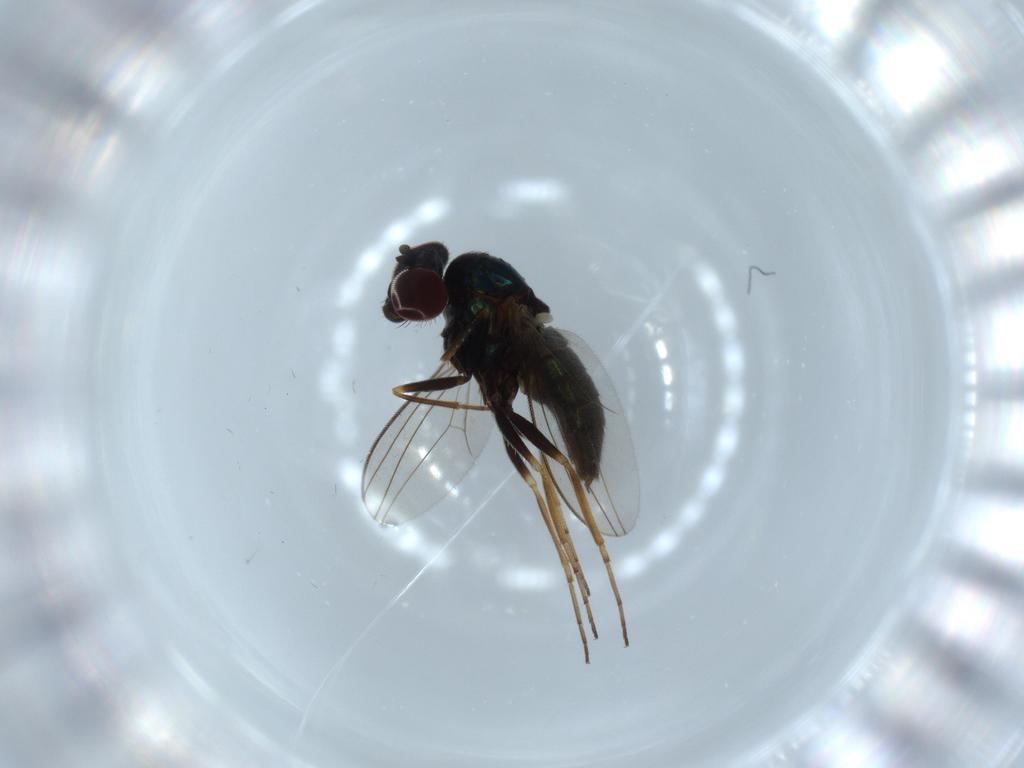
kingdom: Animalia
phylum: Arthropoda
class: Insecta
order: Diptera
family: Dolichopodidae
